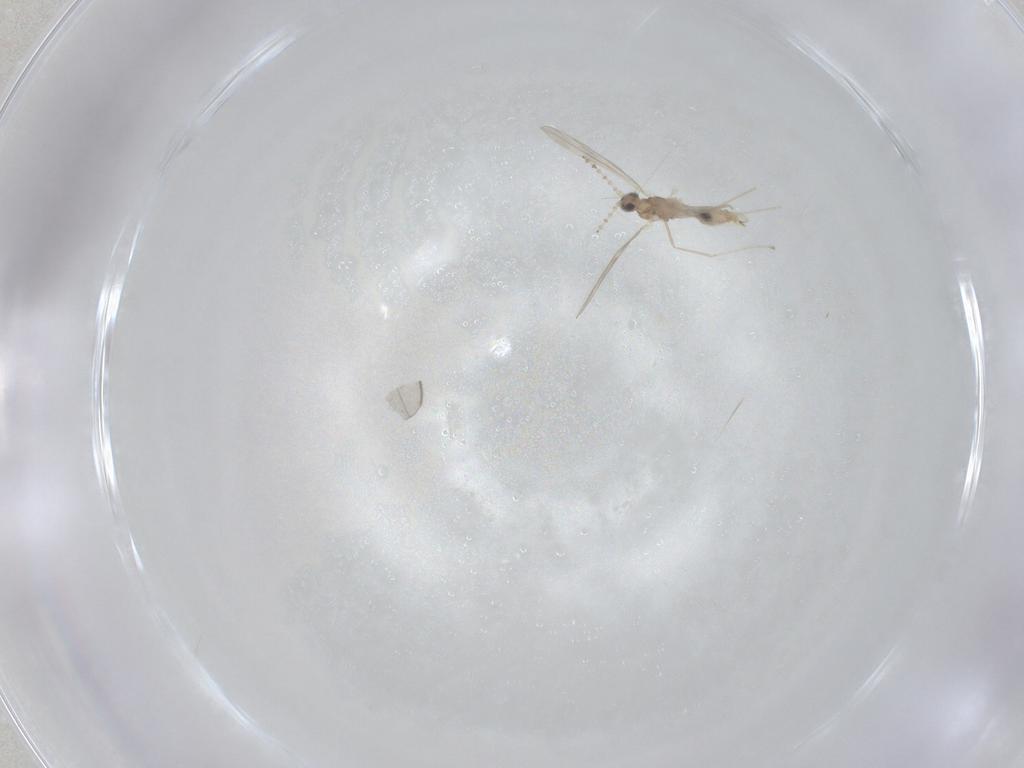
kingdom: Animalia
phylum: Arthropoda
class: Insecta
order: Diptera
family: Cecidomyiidae
